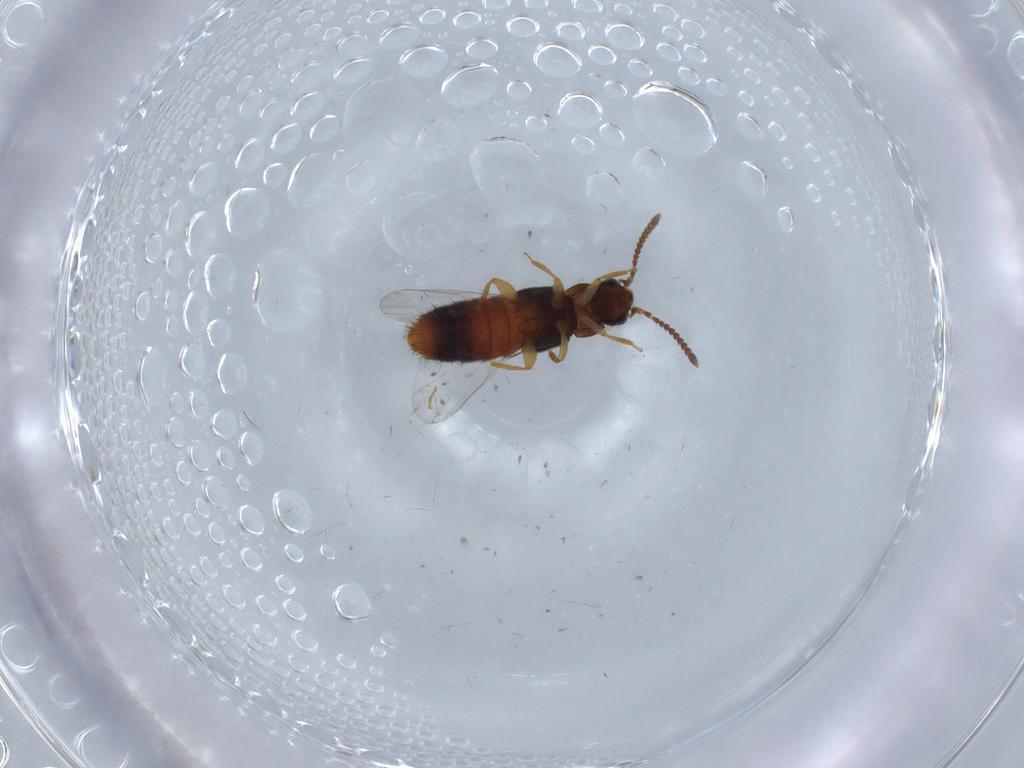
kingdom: Animalia
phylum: Arthropoda
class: Insecta
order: Coleoptera
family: Staphylinidae
